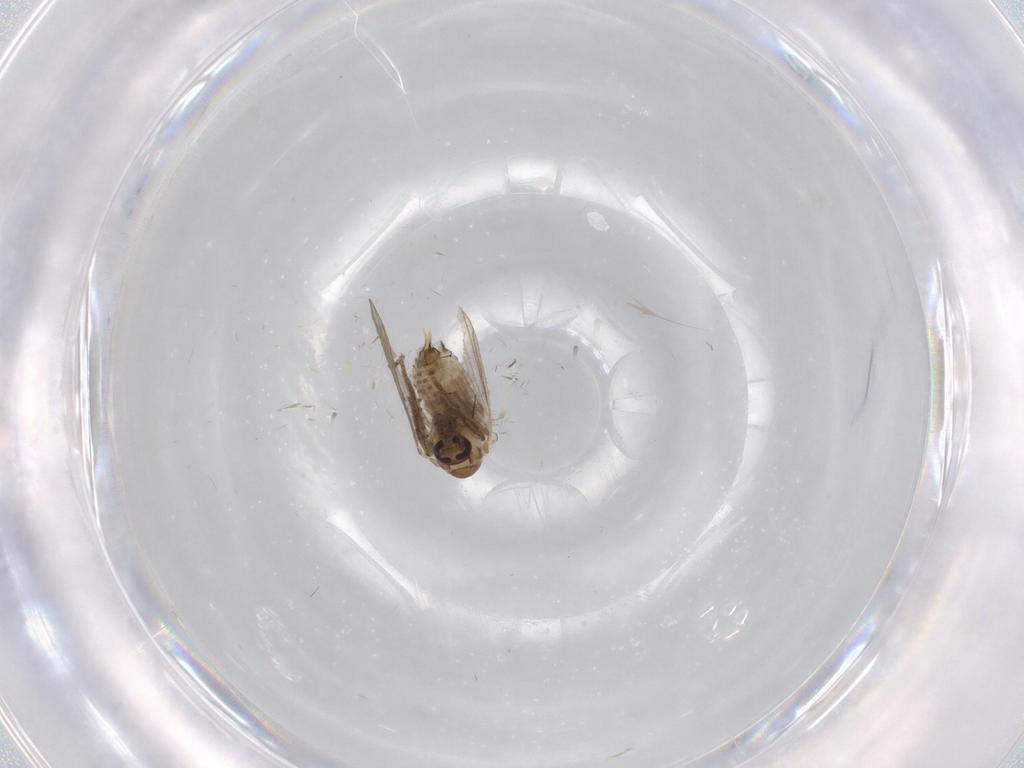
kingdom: Animalia
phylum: Arthropoda
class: Insecta
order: Diptera
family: Psychodidae
